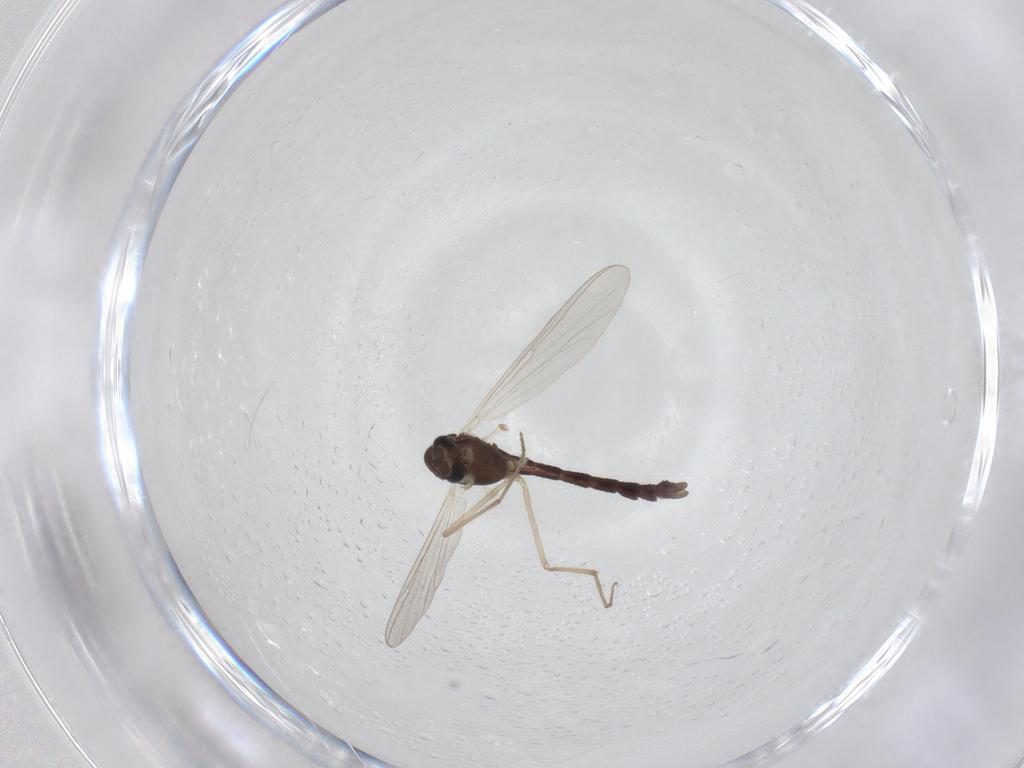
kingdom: Animalia
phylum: Arthropoda
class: Insecta
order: Diptera
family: Chironomidae
